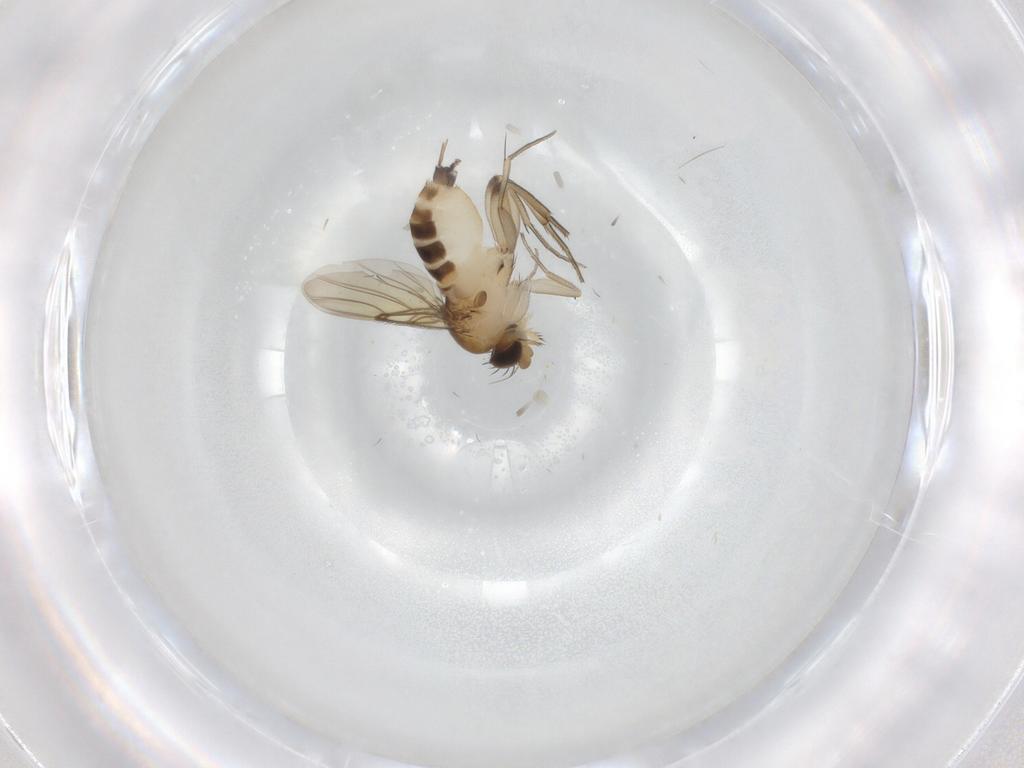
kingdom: Animalia
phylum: Arthropoda
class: Insecta
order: Diptera
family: Phoridae
